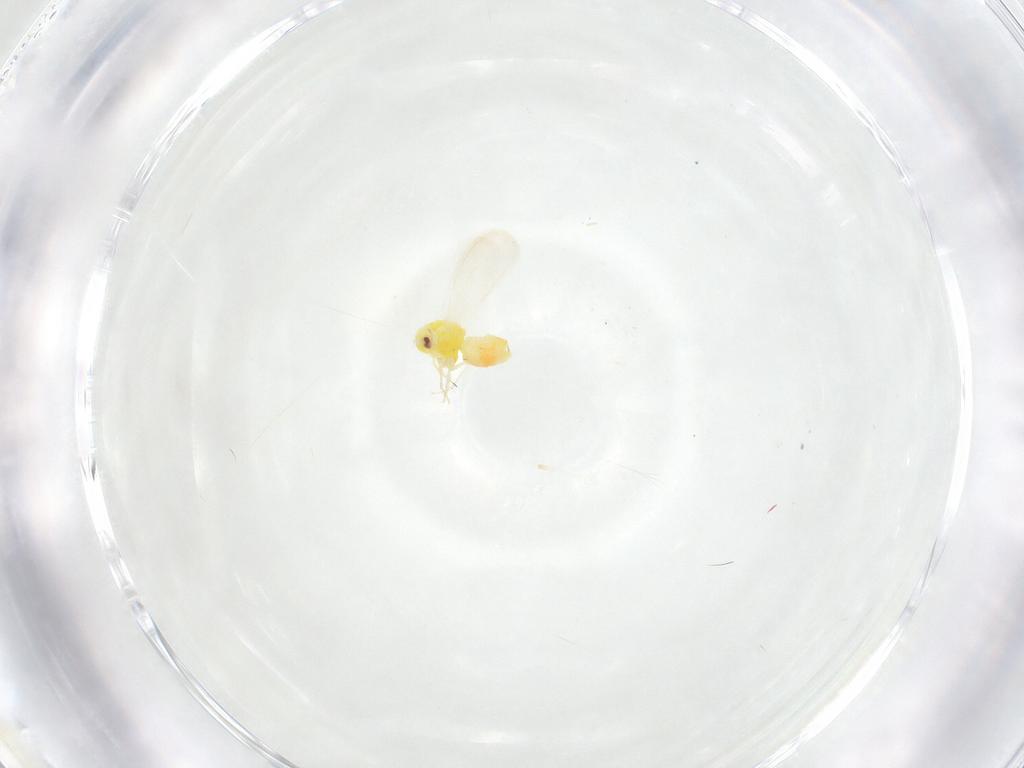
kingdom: Animalia
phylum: Arthropoda
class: Insecta
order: Hemiptera
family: Aleyrodidae
